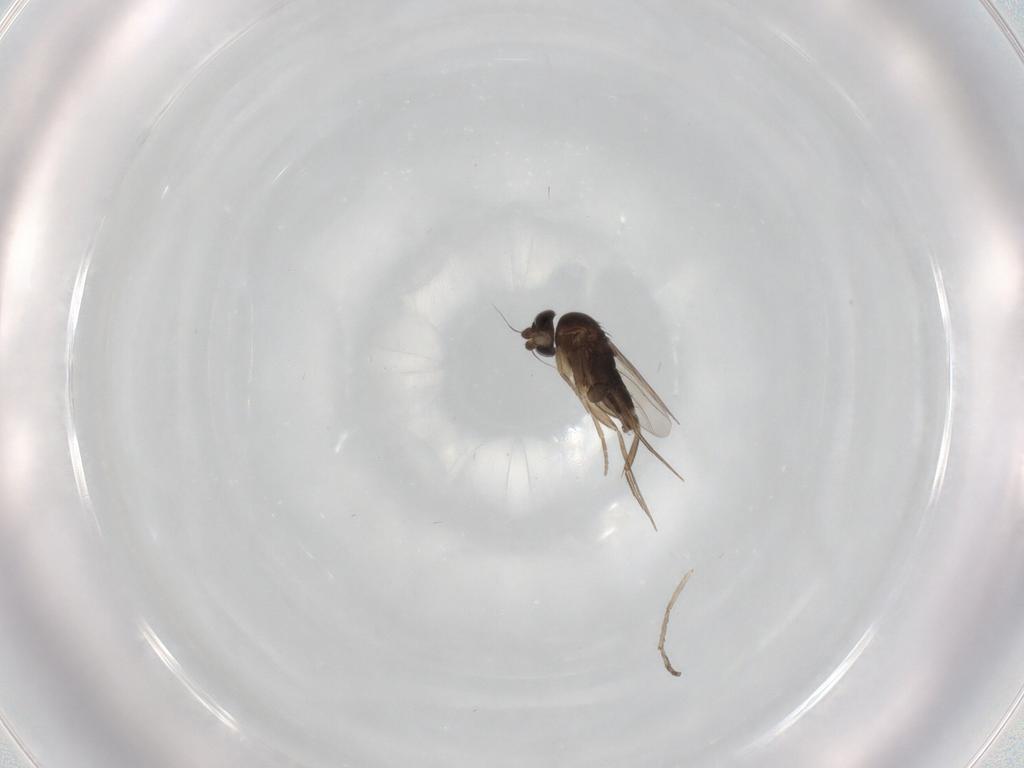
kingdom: Animalia
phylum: Arthropoda
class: Insecta
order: Diptera
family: Phoridae
